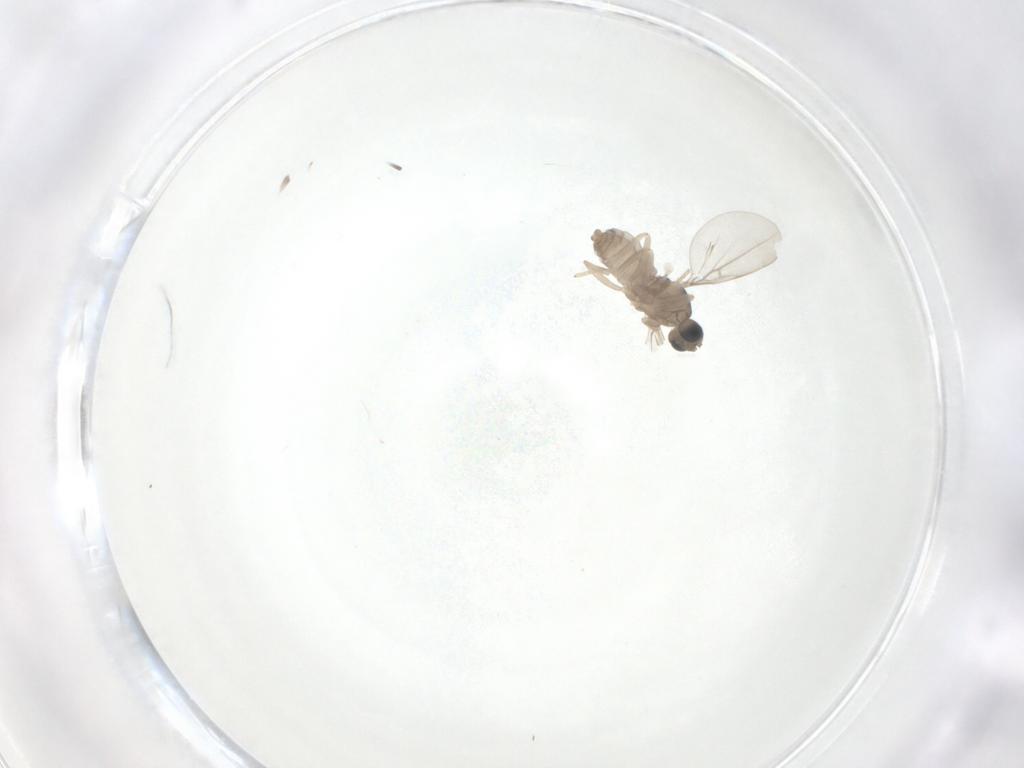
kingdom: Animalia
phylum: Arthropoda
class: Insecta
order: Diptera
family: Cecidomyiidae
